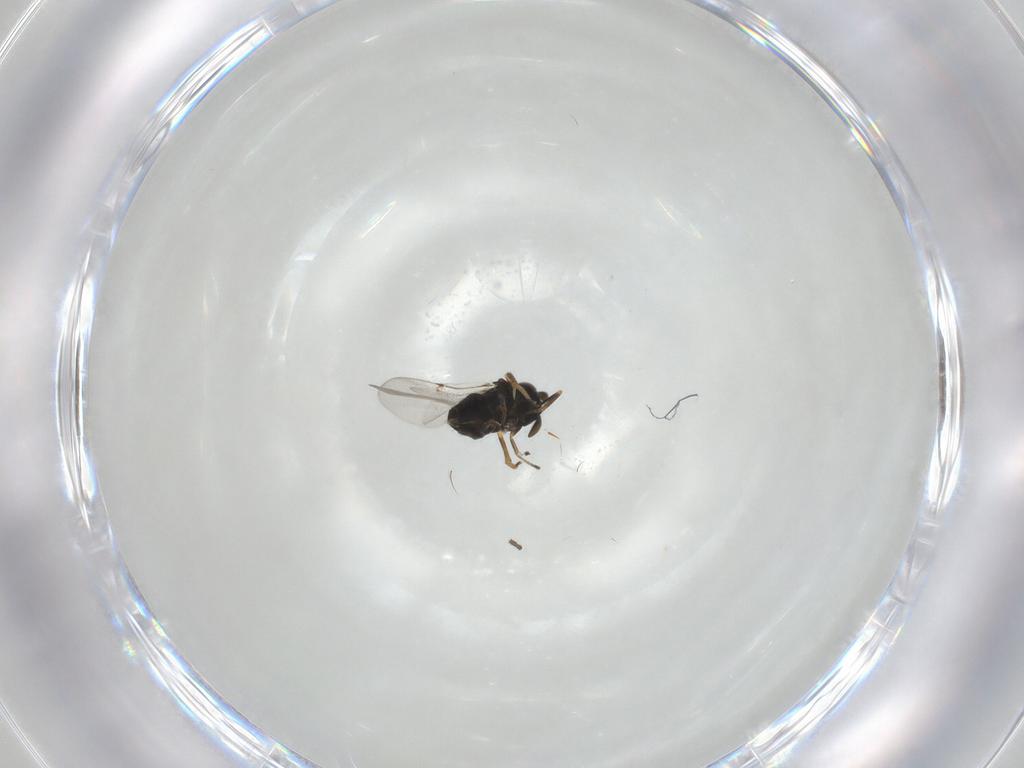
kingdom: Animalia
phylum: Arthropoda
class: Insecta
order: Hymenoptera
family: Encyrtidae
